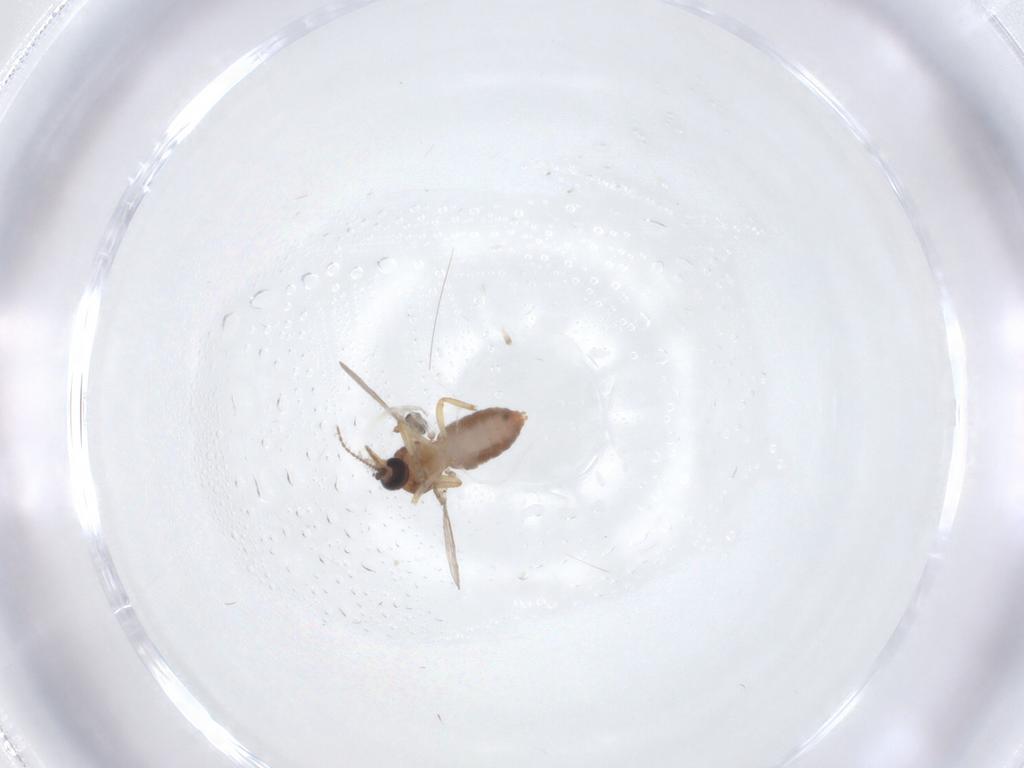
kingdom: Animalia
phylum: Arthropoda
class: Insecta
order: Diptera
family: Ceratopogonidae
